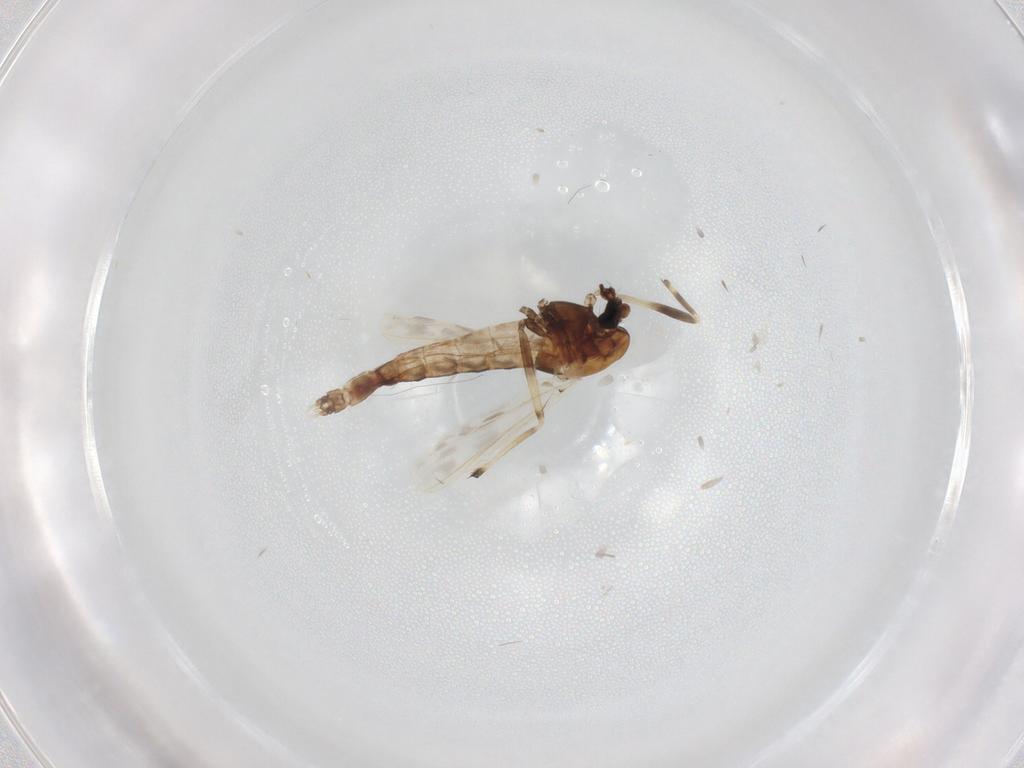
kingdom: Animalia
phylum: Arthropoda
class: Insecta
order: Diptera
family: Chironomidae
